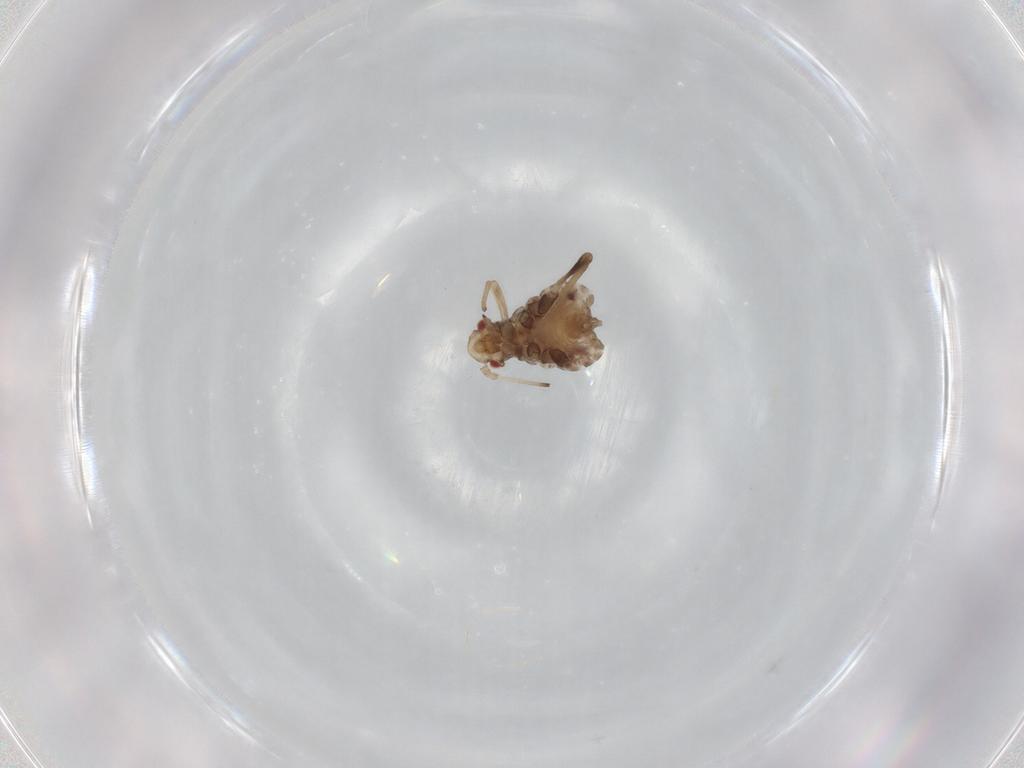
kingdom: Animalia
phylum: Arthropoda
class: Insecta
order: Hemiptera
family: Aphididae
